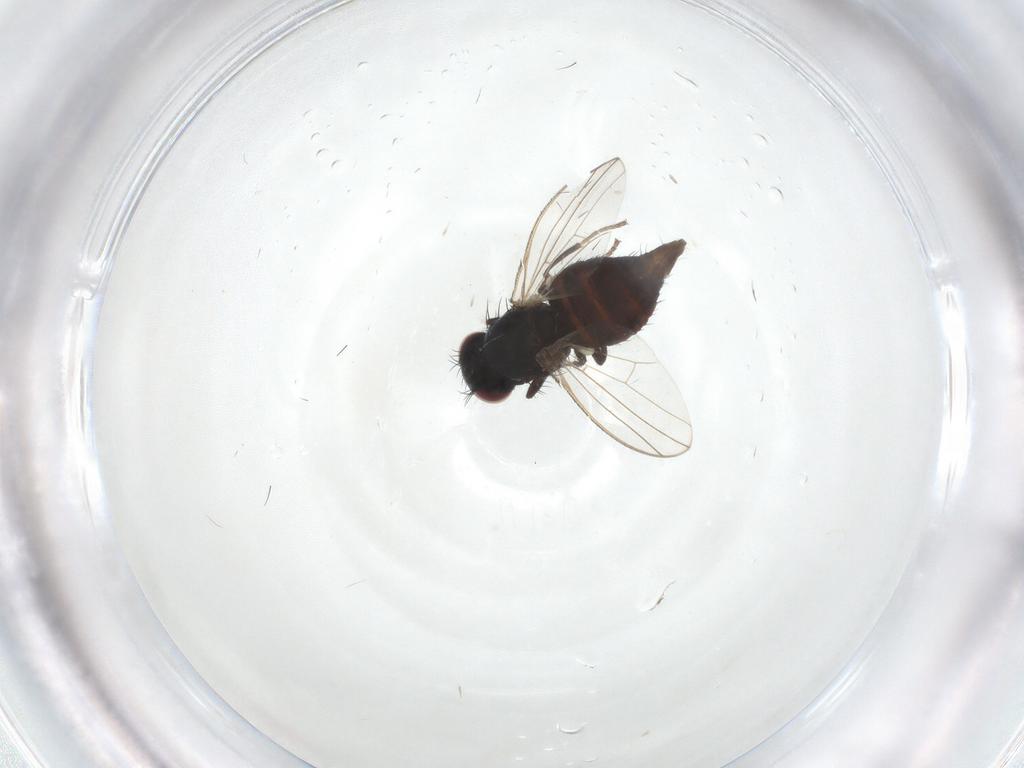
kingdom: Animalia
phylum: Arthropoda
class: Insecta
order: Diptera
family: Carnidae
